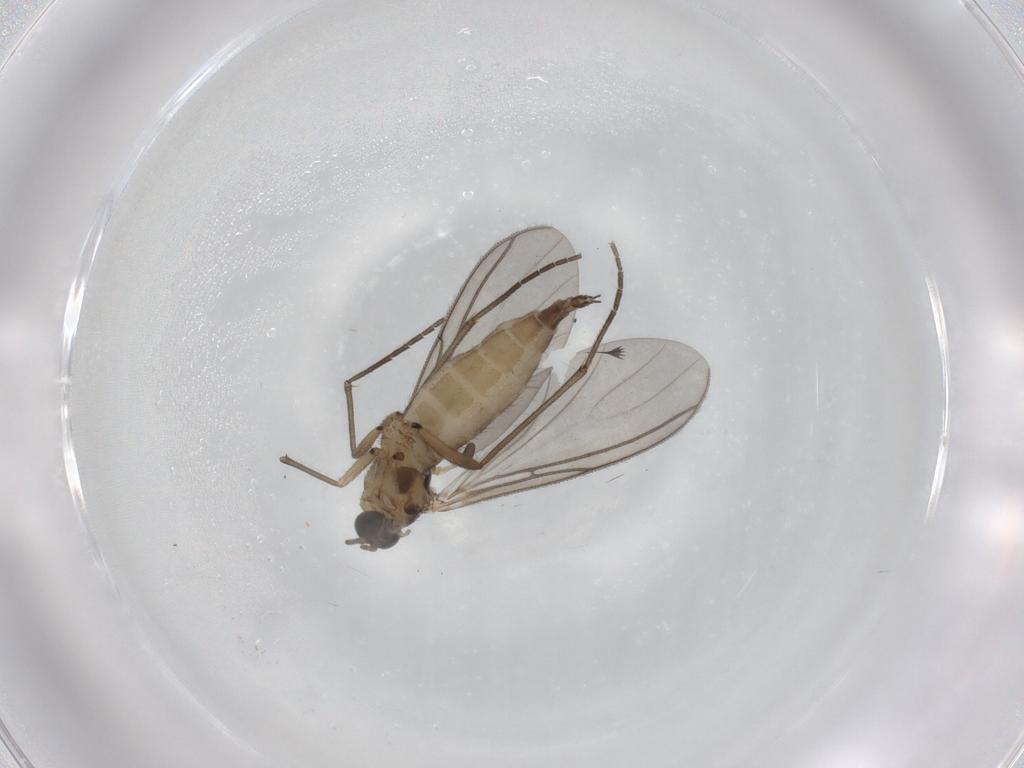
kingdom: Animalia
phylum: Arthropoda
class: Insecta
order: Diptera
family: Sciaridae
